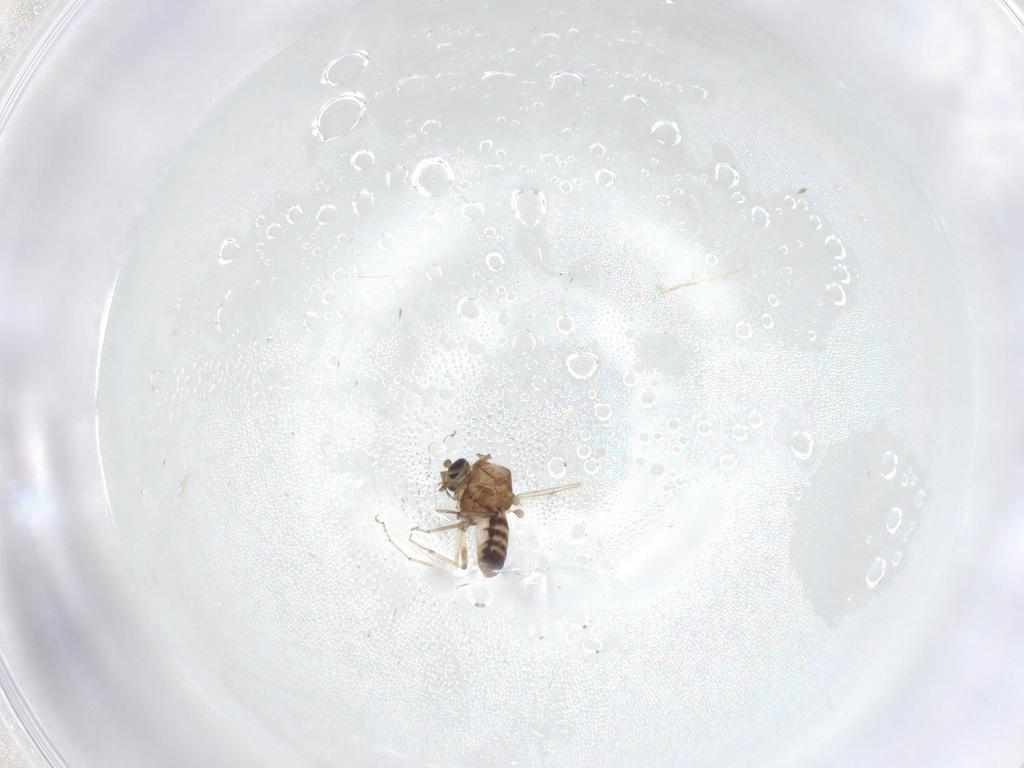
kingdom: Animalia
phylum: Arthropoda
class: Insecta
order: Diptera
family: Ceratopogonidae
